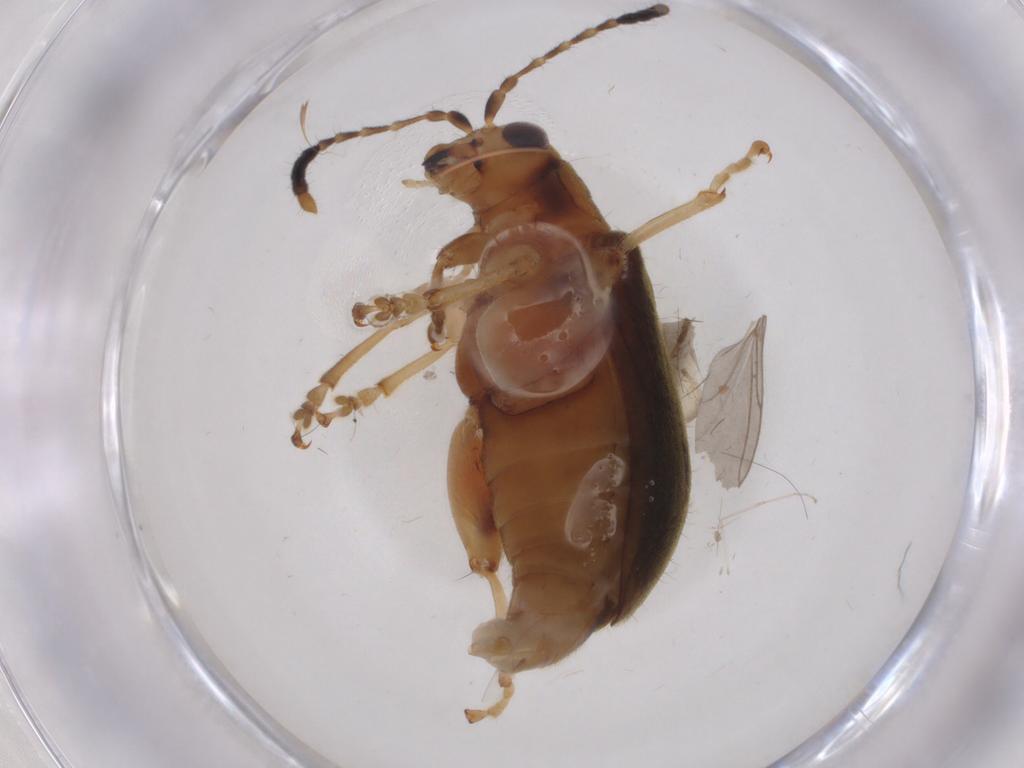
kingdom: Animalia
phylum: Arthropoda
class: Insecta
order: Coleoptera
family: Chrysomelidae
